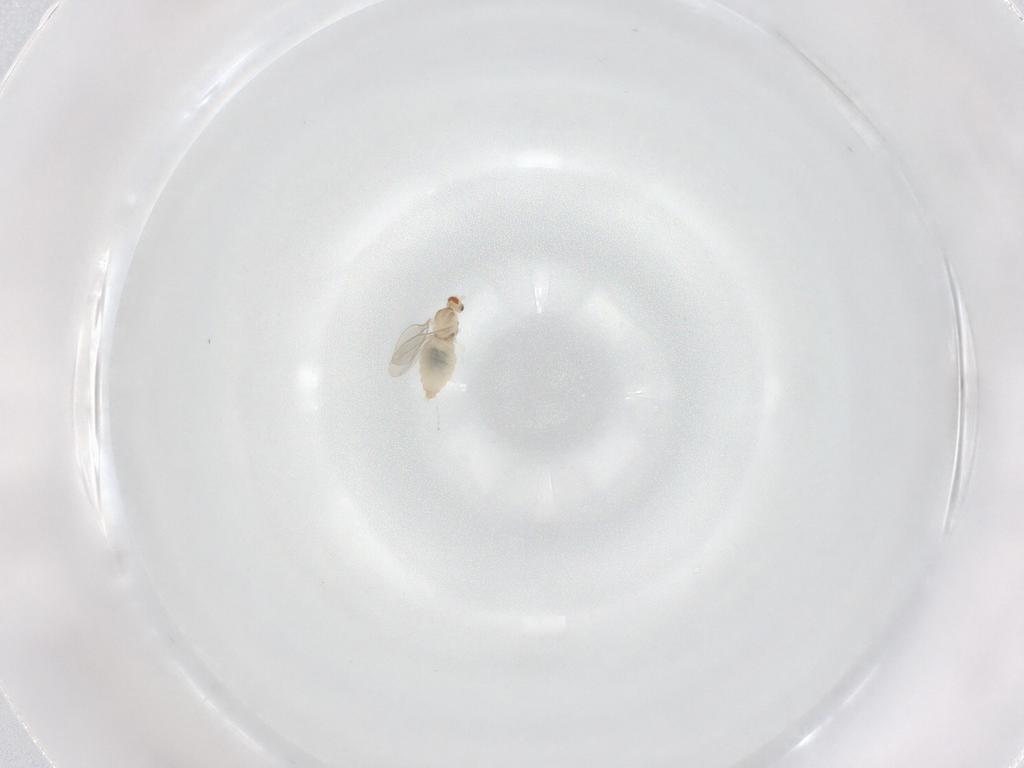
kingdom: Animalia
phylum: Arthropoda
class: Insecta
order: Diptera
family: Cecidomyiidae
